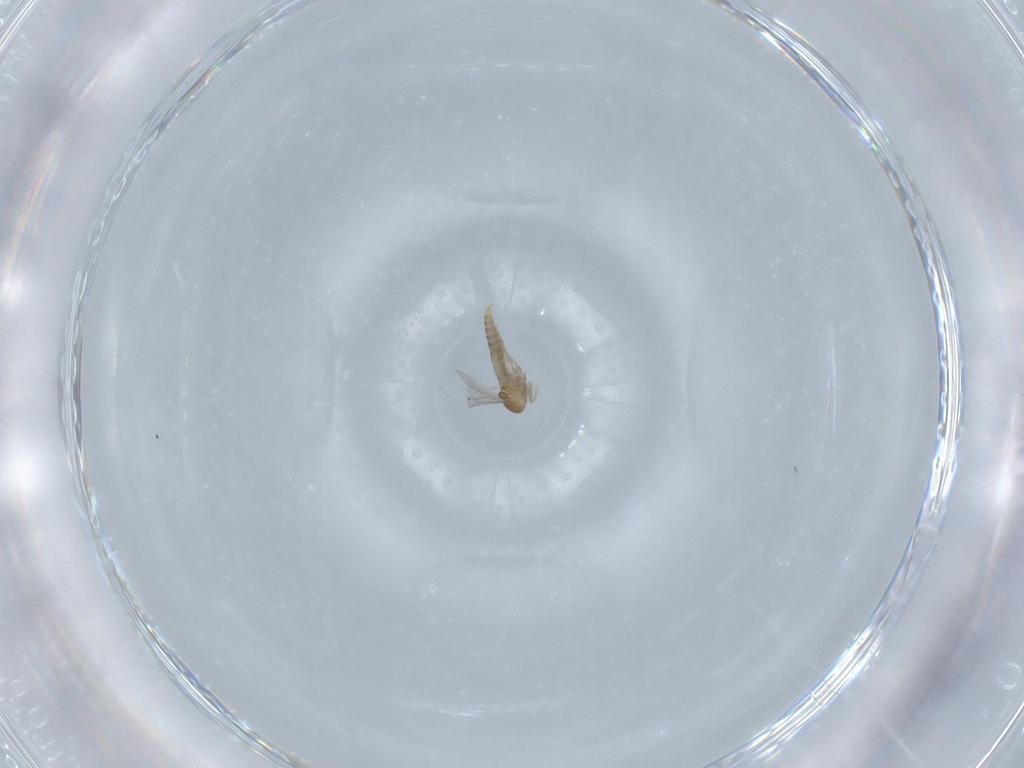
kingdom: Animalia
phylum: Arthropoda
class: Insecta
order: Diptera
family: Cecidomyiidae
